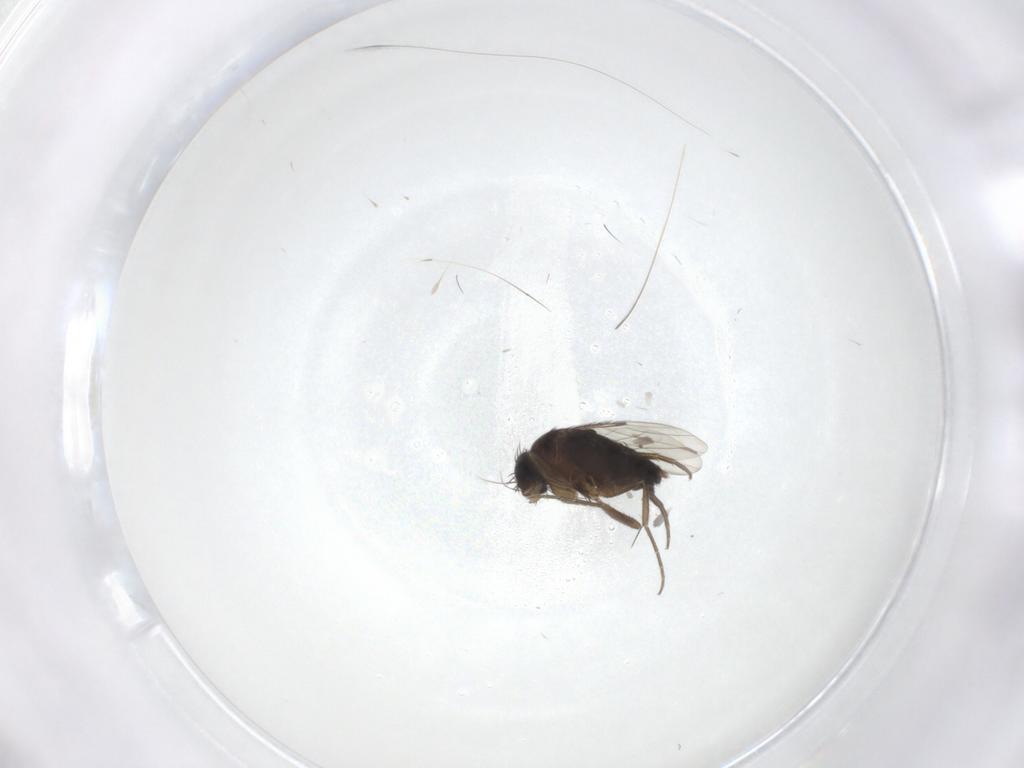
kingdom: Animalia
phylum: Arthropoda
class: Insecta
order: Diptera
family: Phoridae
